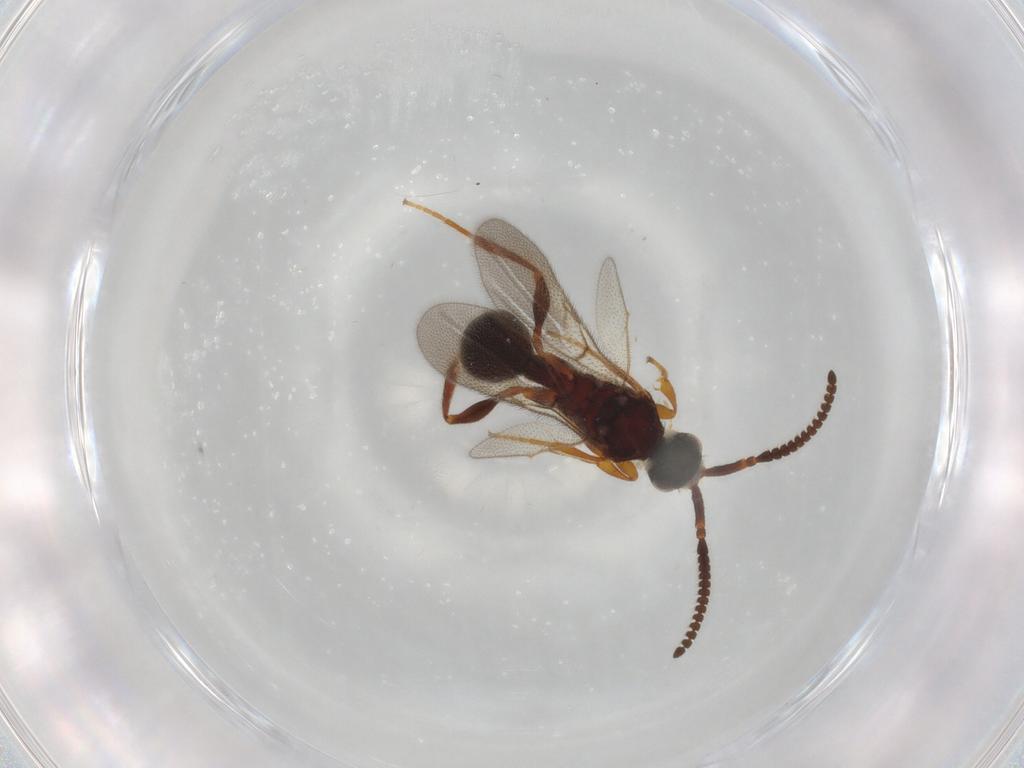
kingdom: Animalia
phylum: Arthropoda
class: Insecta
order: Hymenoptera
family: Diapriidae
